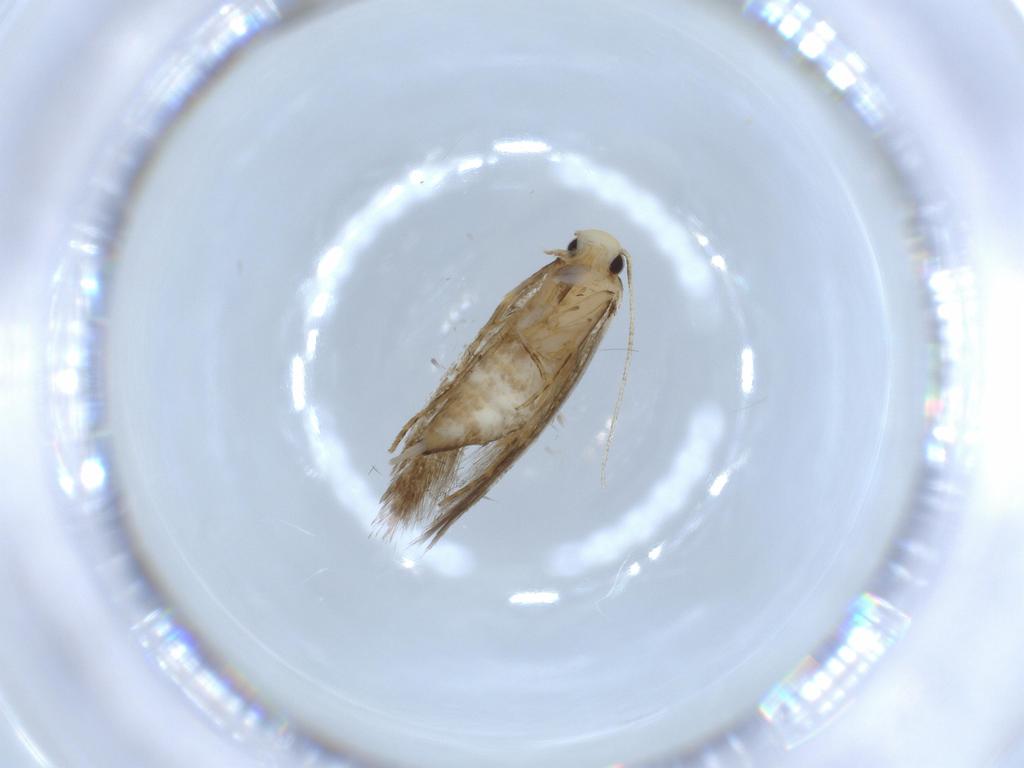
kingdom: Animalia
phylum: Arthropoda
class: Insecta
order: Lepidoptera
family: Tineidae
